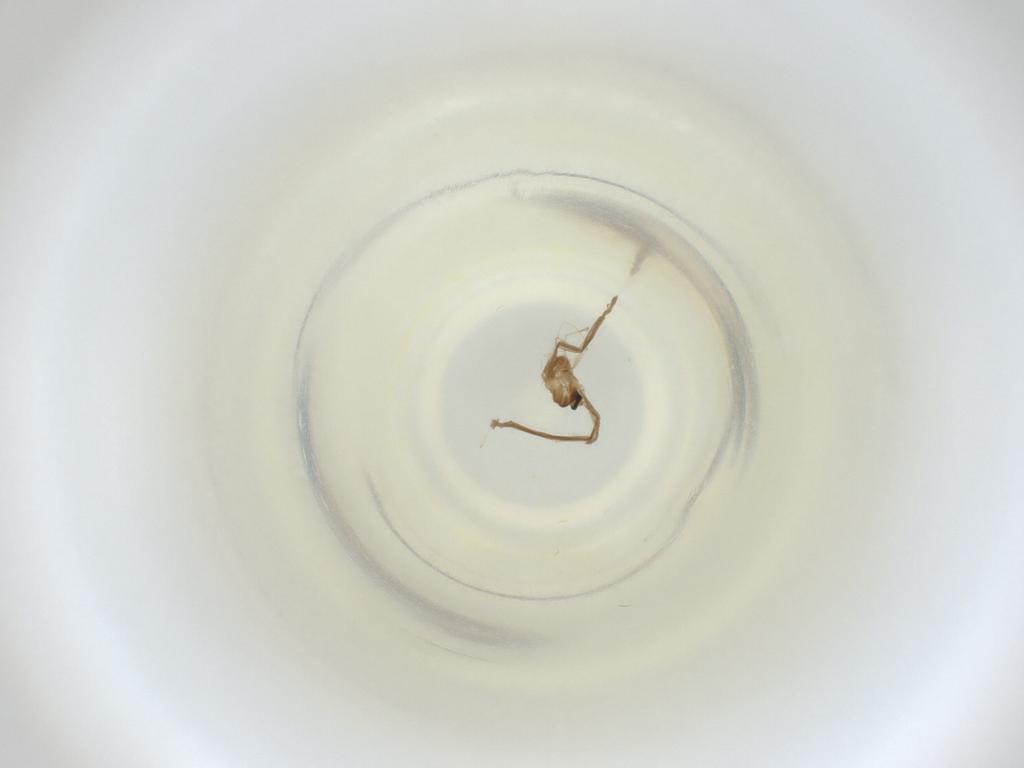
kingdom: Animalia
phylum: Arthropoda
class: Insecta
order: Diptera
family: Cecidomyiidae
